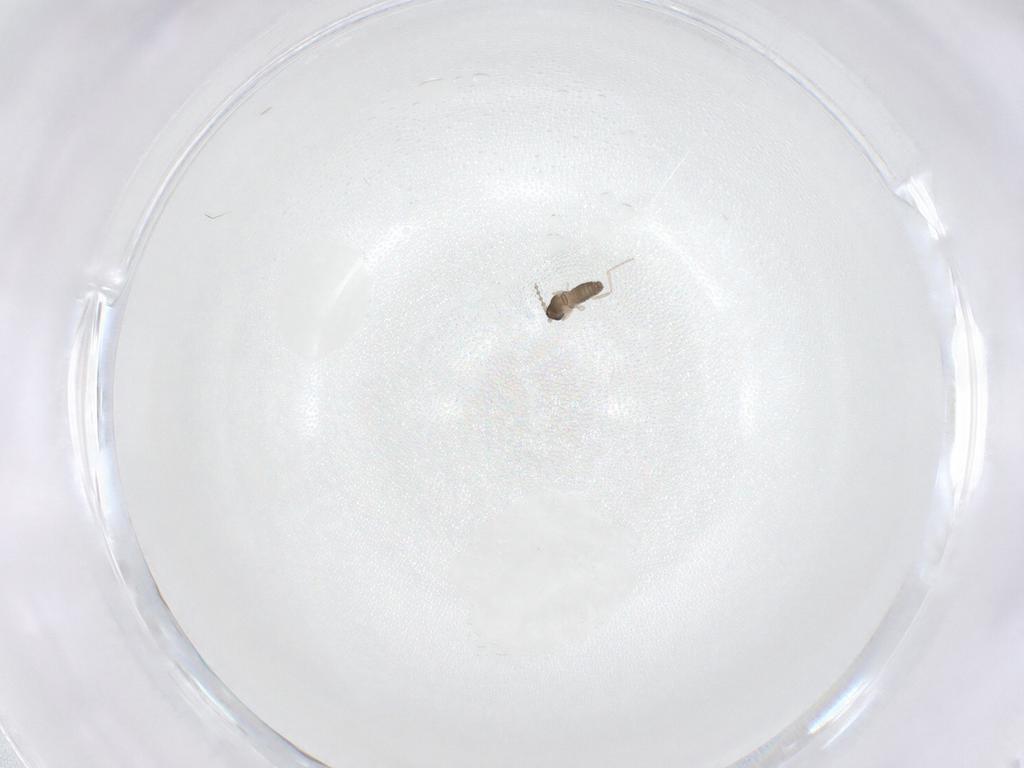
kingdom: Animalia
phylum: Arthropoda
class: Insecta
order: Diptera
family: Cecidomyiidae
